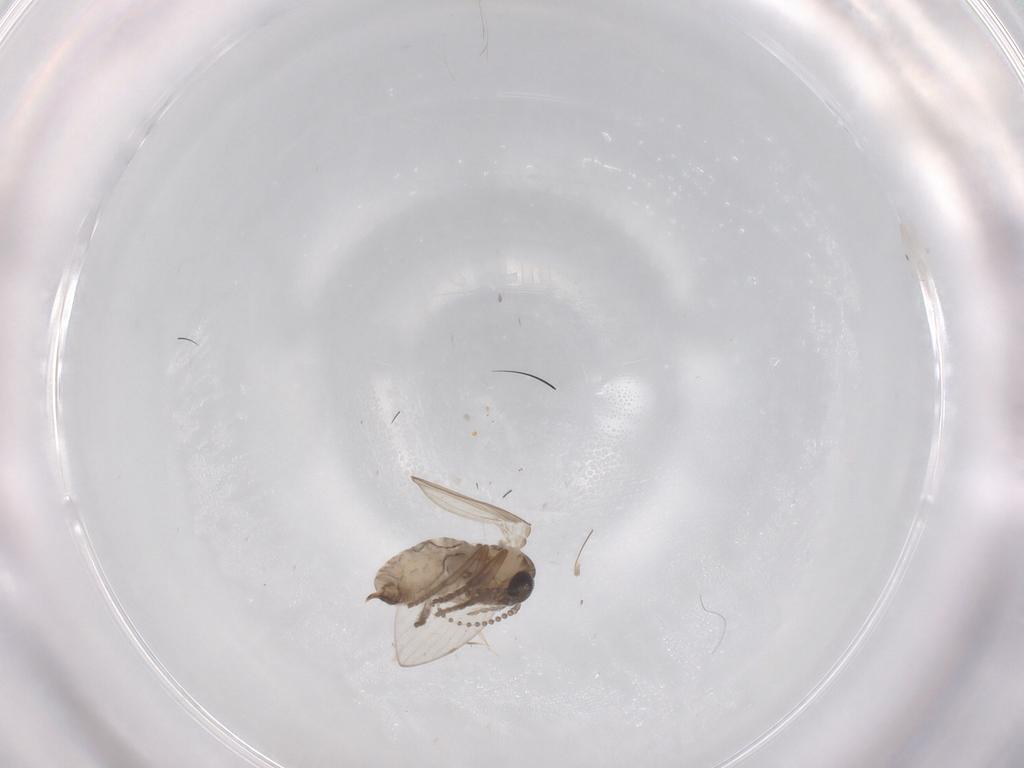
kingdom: Animalia
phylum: Arthropoda
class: Insecta
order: Diptera
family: Psychodidae
